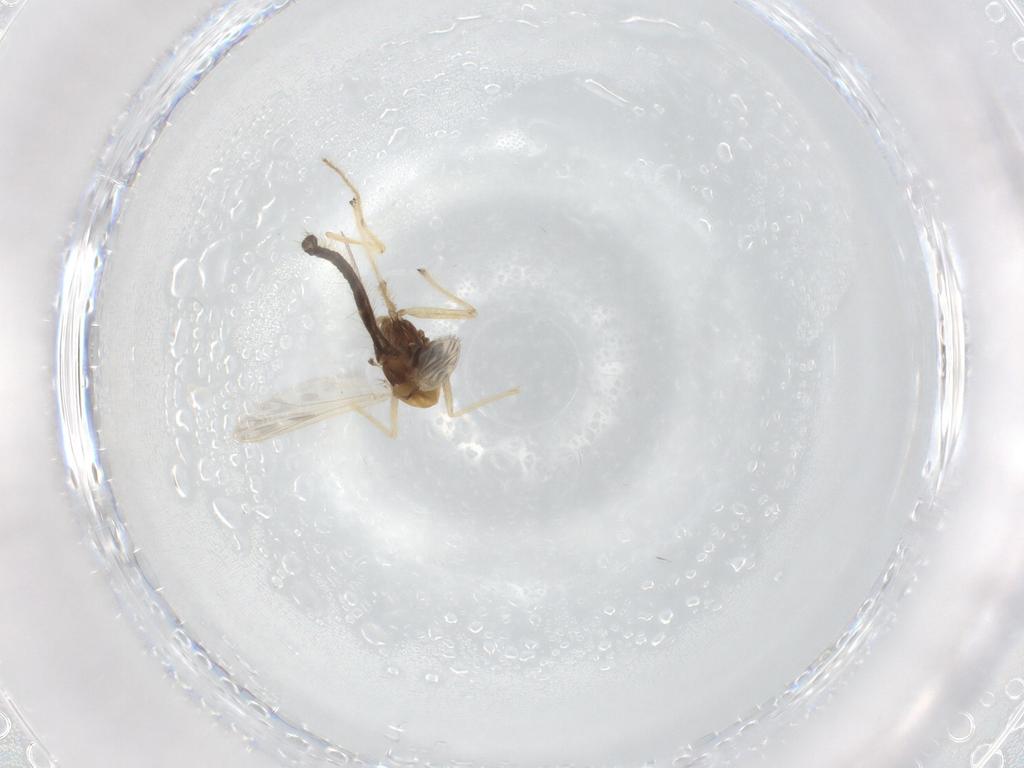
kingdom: Animalia
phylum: Arthropoda
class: Insecta
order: Diptera
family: Chironomidae
